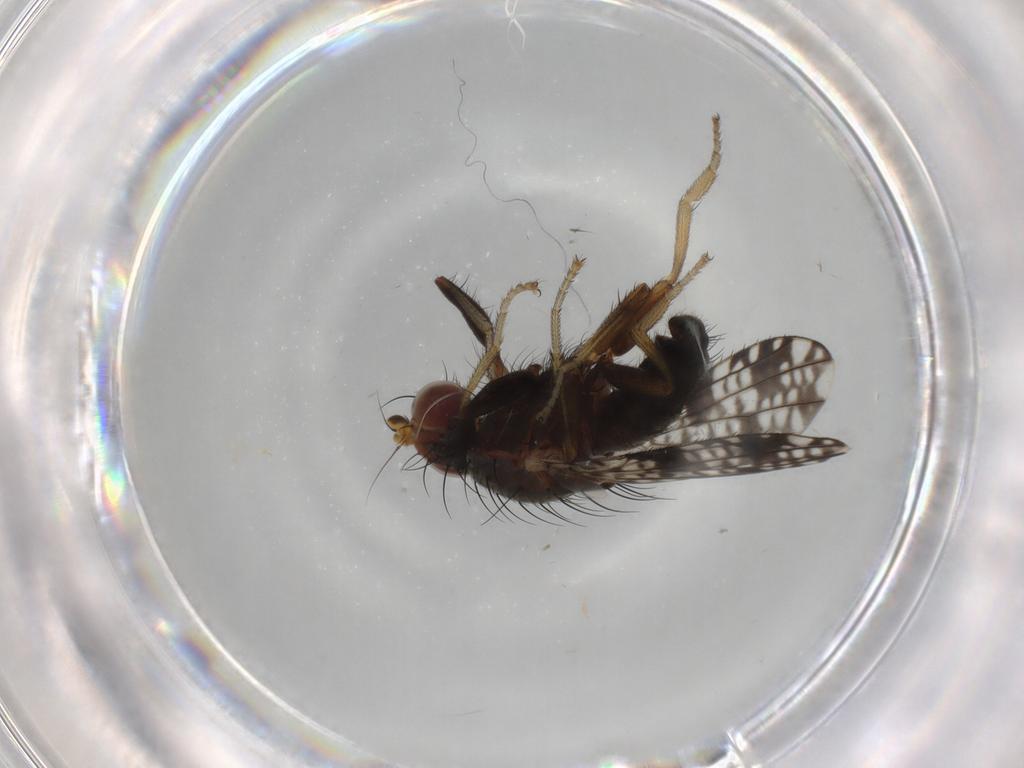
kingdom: Animalia
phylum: Arthropoda
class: Insecta
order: Diptera
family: Tephritidae
